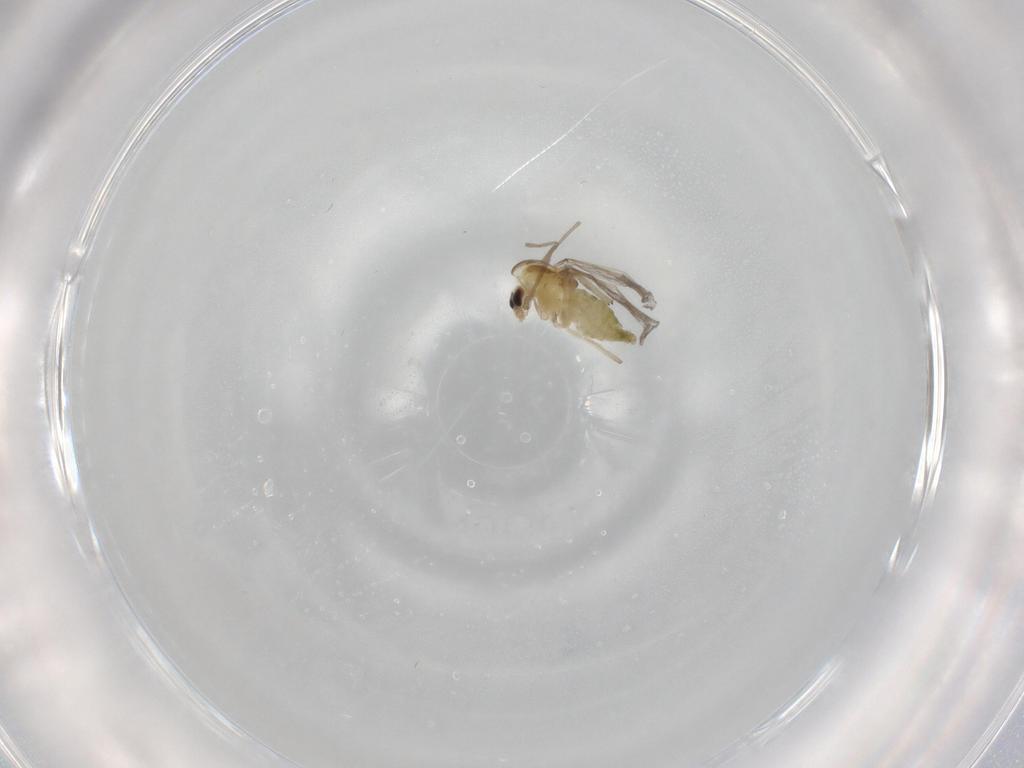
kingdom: Animalia
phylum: Arthropoda
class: Insecta
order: Diptera
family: Chironomidae
